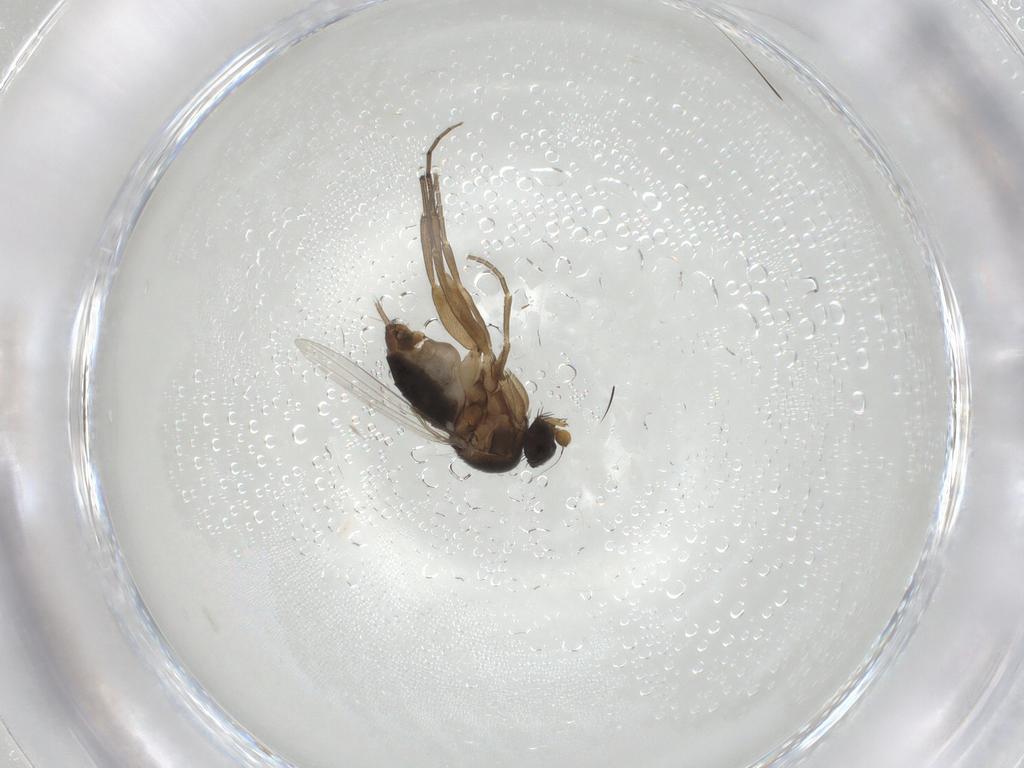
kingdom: Animalia
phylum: Arthropoda
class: Insecta
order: Diptera
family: Phoridae
